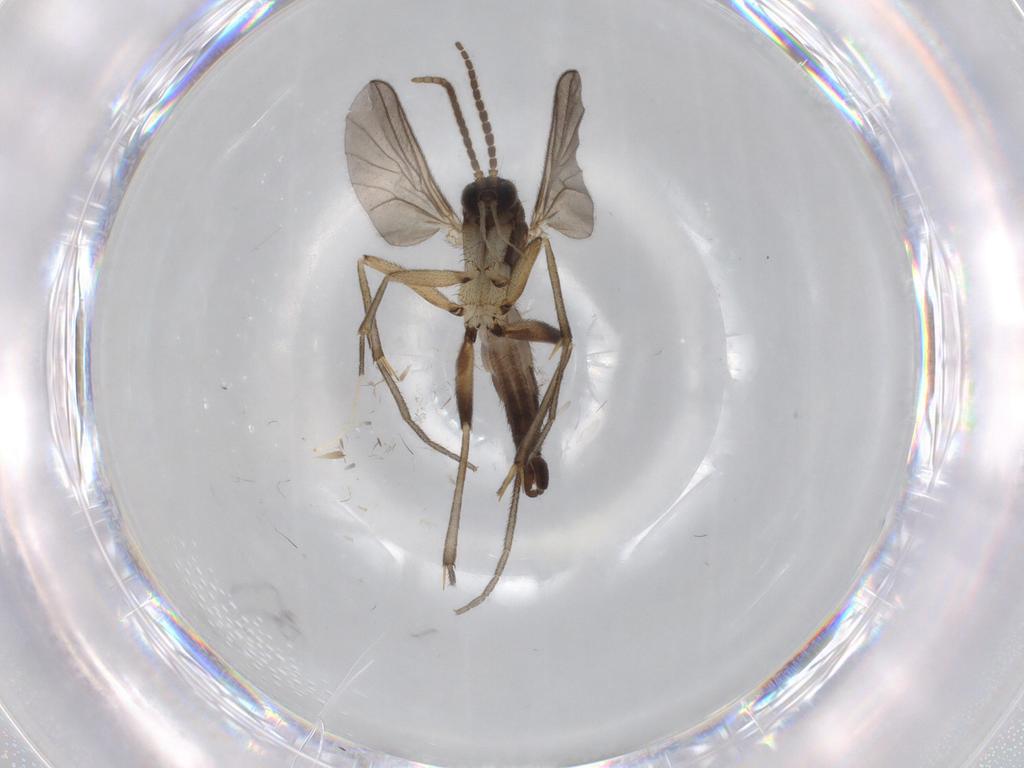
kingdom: Animalia
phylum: Arthropoda
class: Insecta
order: Diptera
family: Mycetophilidae
